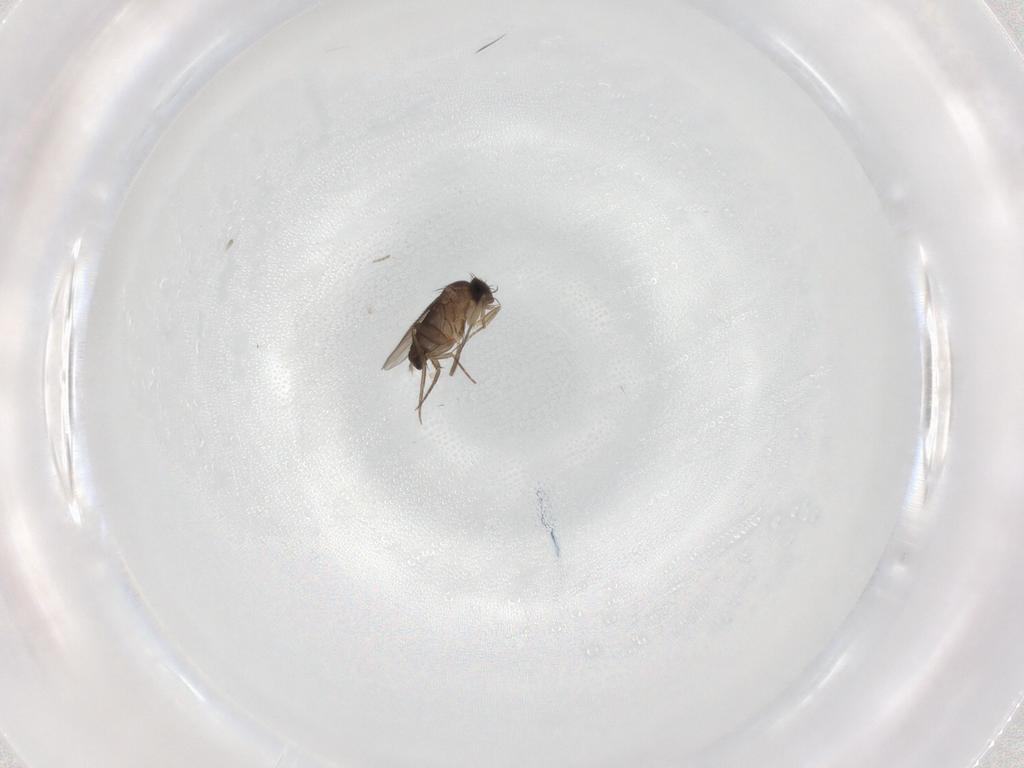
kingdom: Animalia
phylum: Arthropoda
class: Insecta
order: Diptera
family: Phoridae
